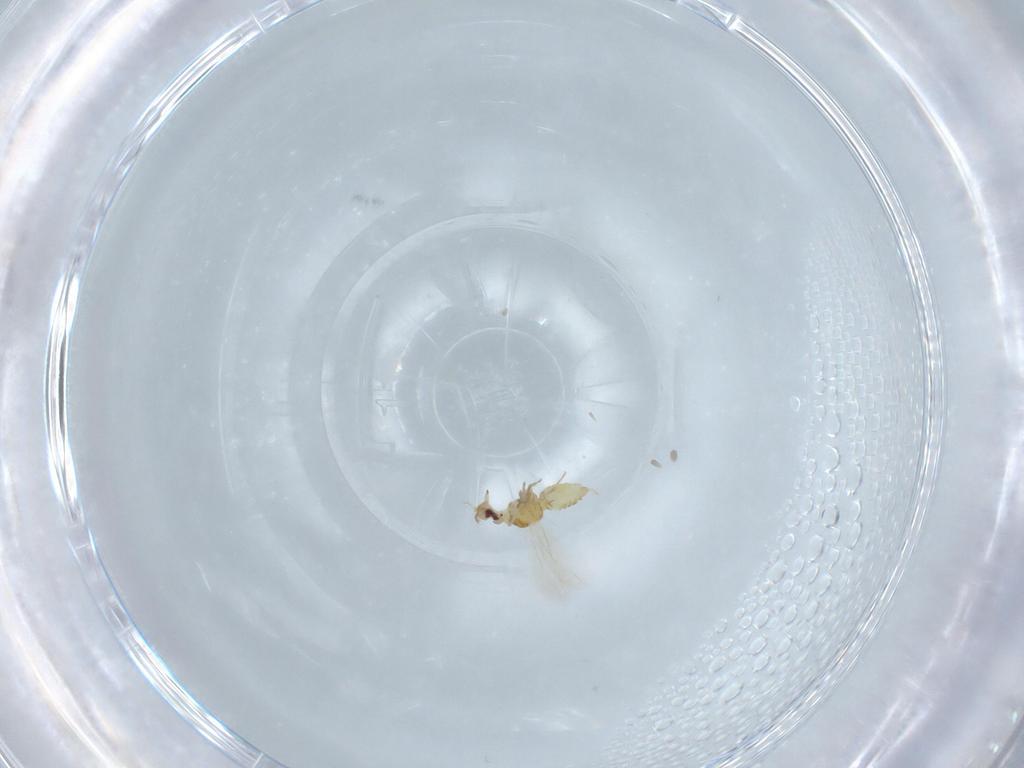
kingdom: Animalia
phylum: Arthropoda
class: Insecta
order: Hemiptera
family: Aleyrodidae
